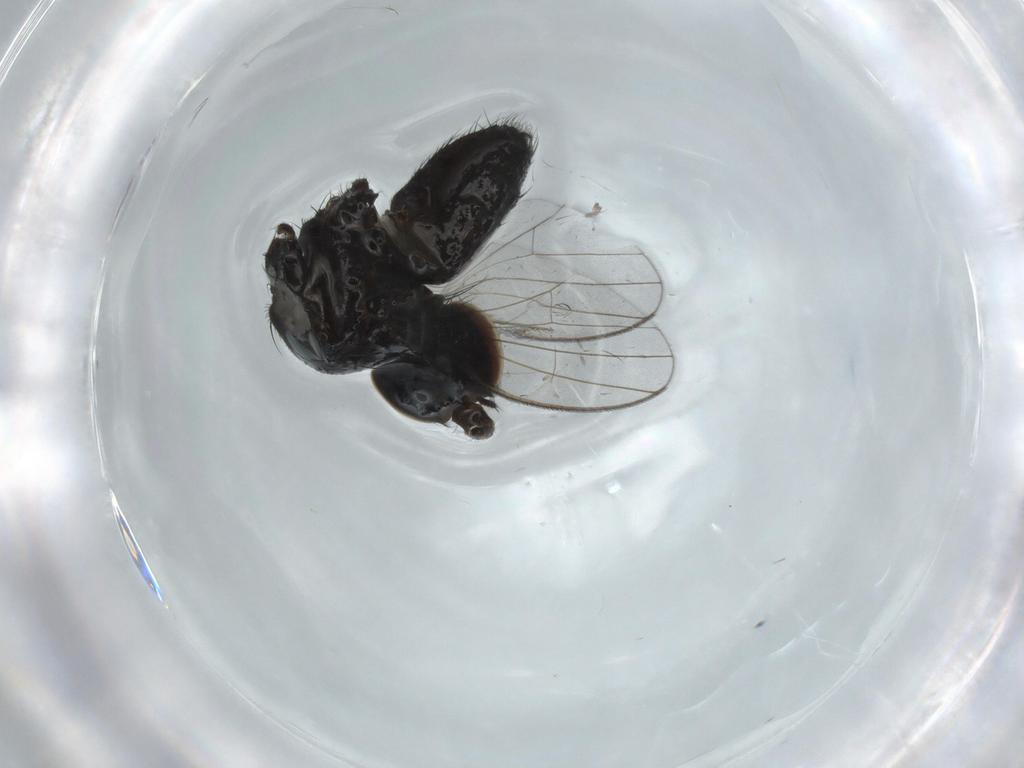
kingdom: Animalia
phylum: Arthropoda
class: Insecta
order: Diptera
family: Milichiidae
